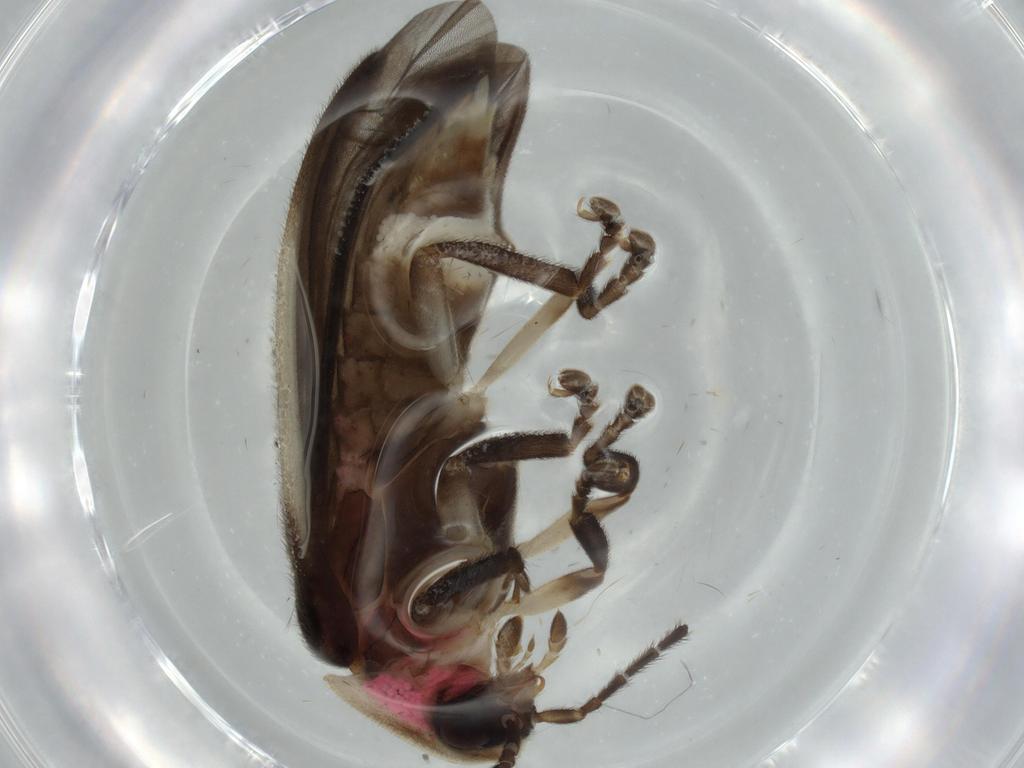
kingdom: Animalia
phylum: Arthropoda
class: Insecta
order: Coleoptera
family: Lampyridae
